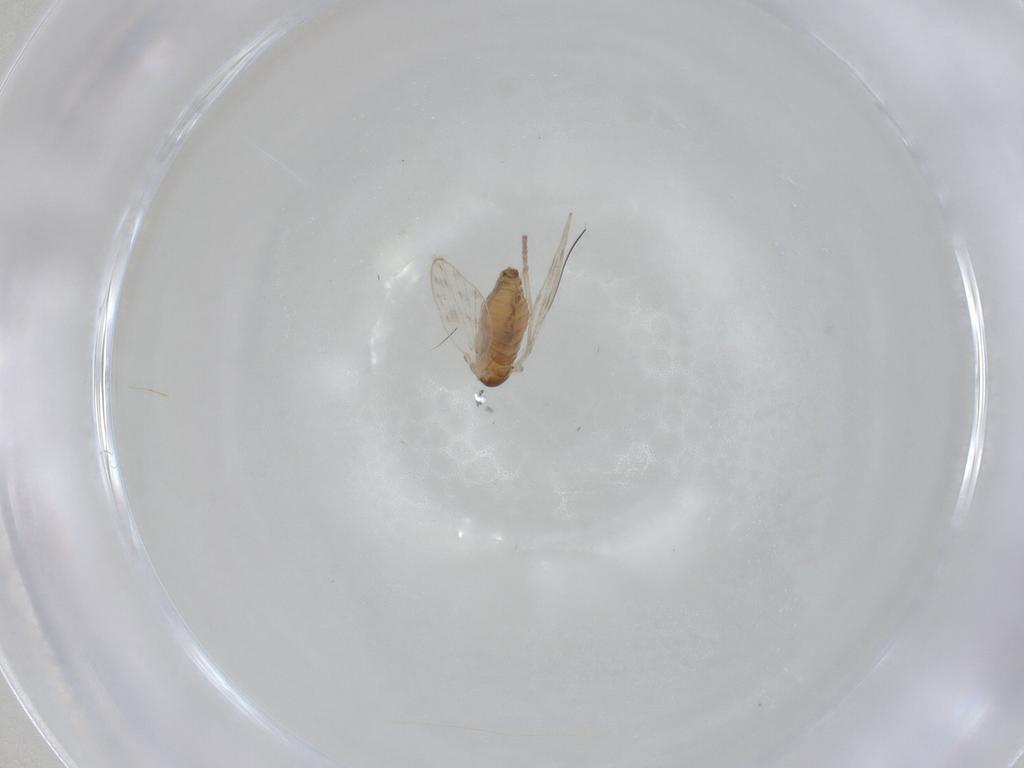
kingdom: Animalia
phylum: Arthropoda
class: Insecta
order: Diptera
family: Psychodidae
